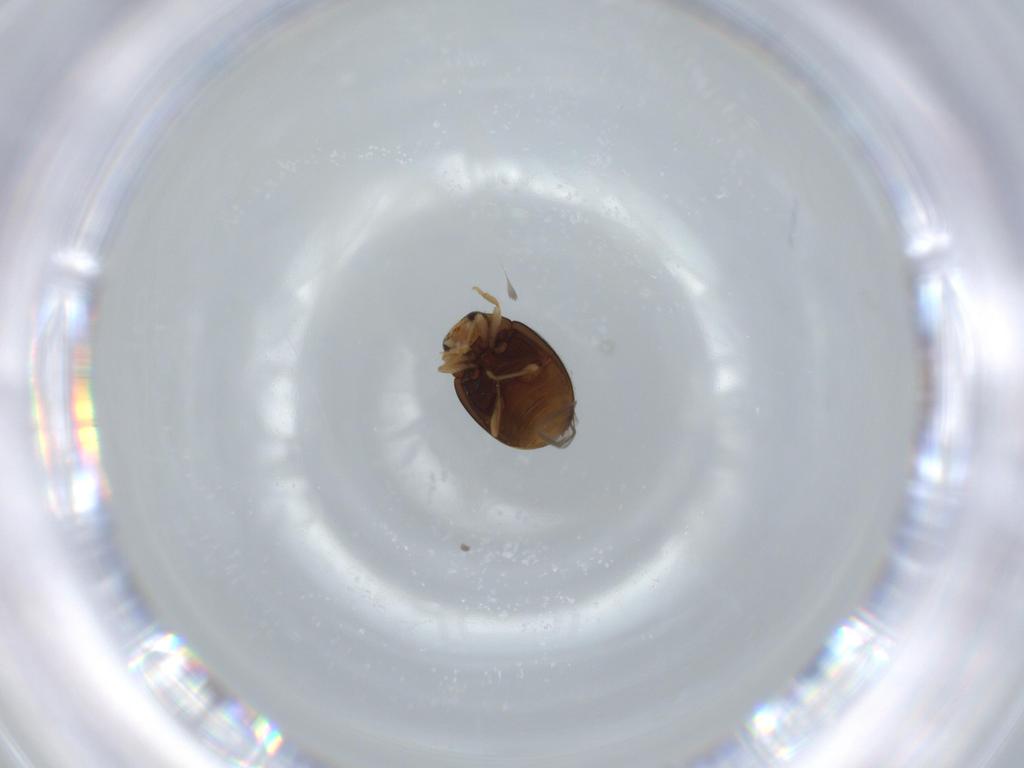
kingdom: Animalia
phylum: Arthropoda
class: Insecta
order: Coleoptera
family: Coccinellidae
